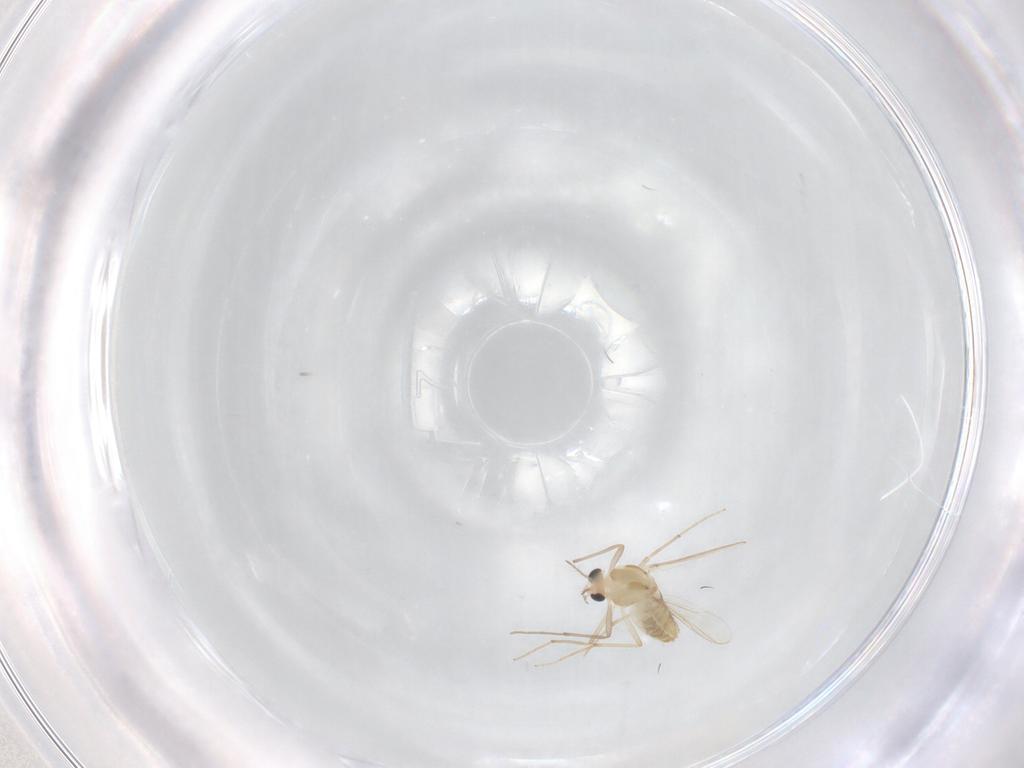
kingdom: Animalia
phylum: Arthropoda
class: Insecta
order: Diptera
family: Chironomidae
